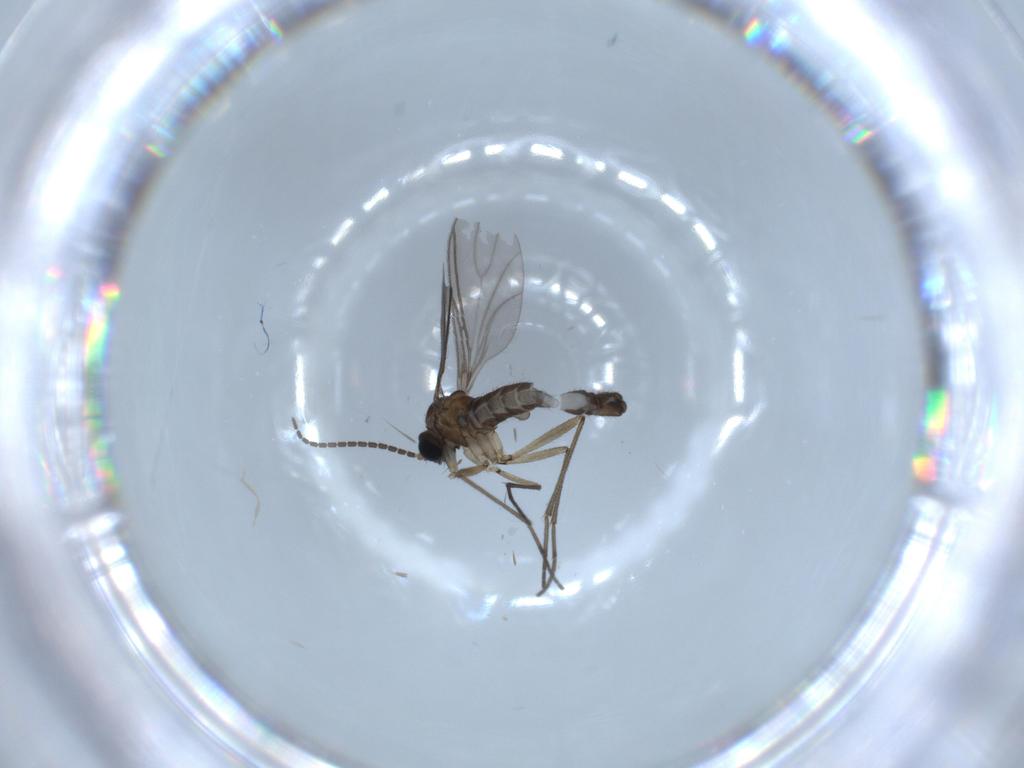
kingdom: Animalia
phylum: Arthropoda
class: Insecta
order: Diptera
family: Sciaridae
